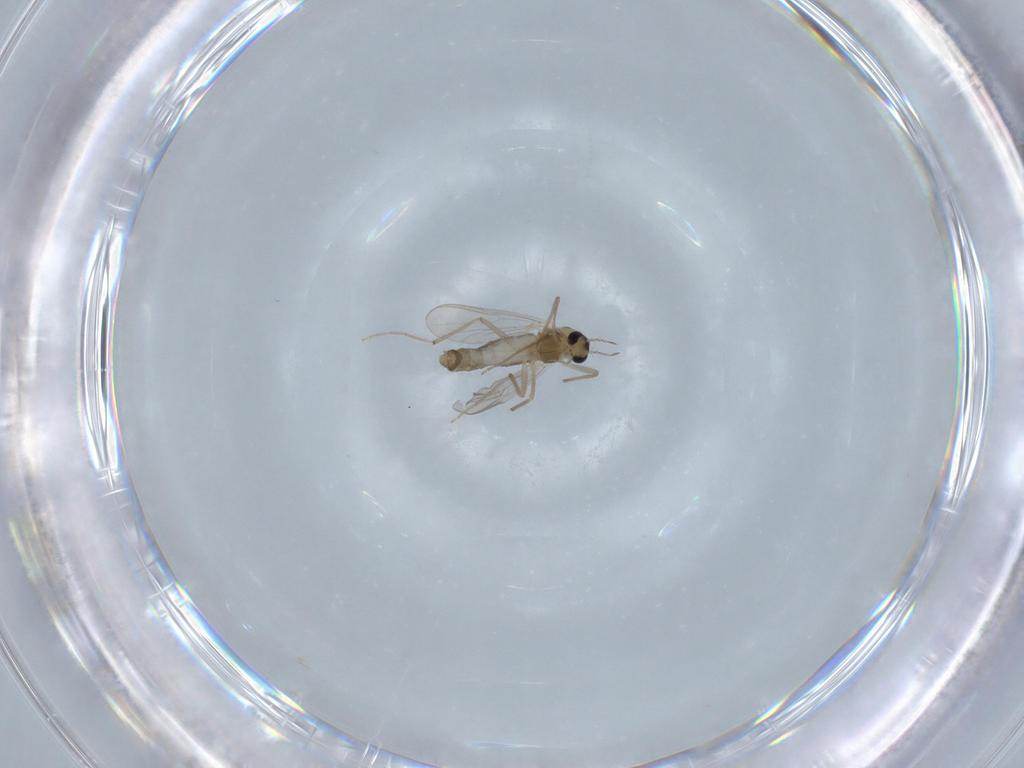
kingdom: Animalia
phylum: Arthropoda
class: Insecta
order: Diptera
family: Chironomidae
